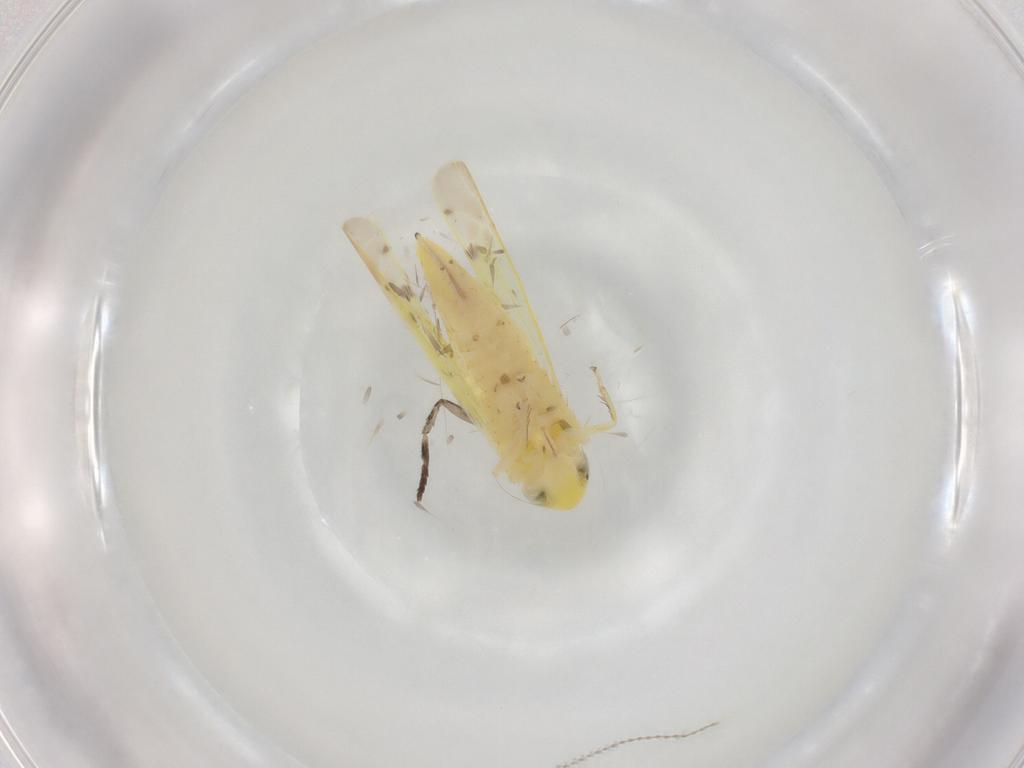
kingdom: Animalia
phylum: Arthropoda
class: Insecta
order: Hemiptera
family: Cicadellidae
